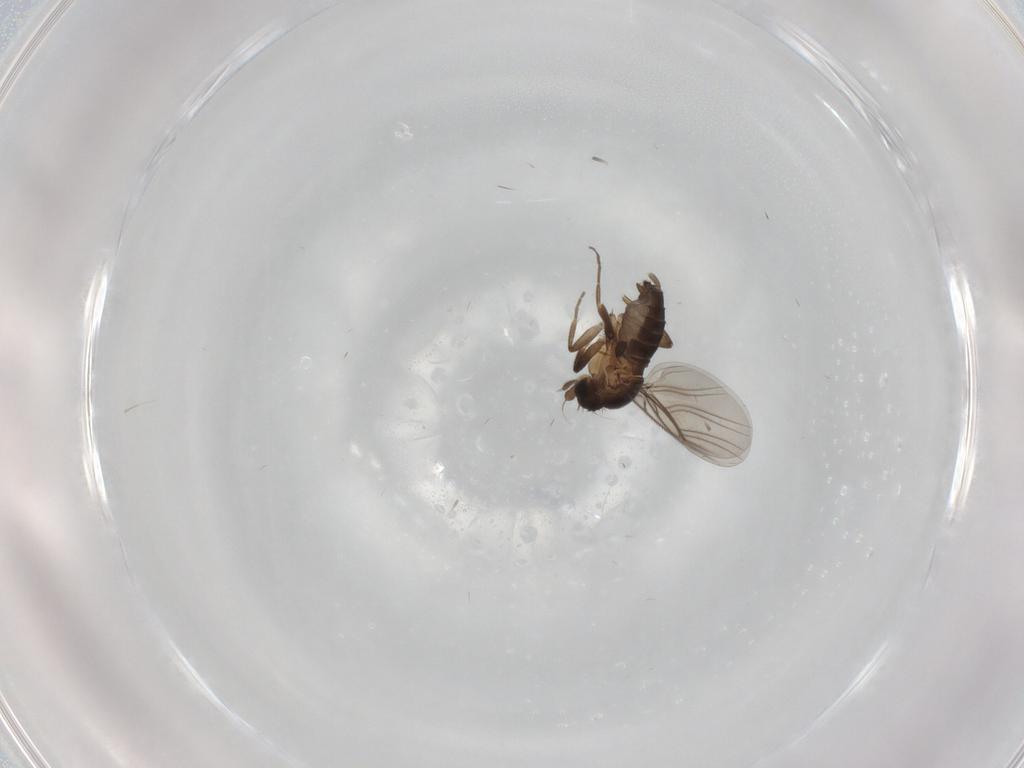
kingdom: Animalia
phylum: Arthropoda
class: Insecta
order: Diptera
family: Phoridae
